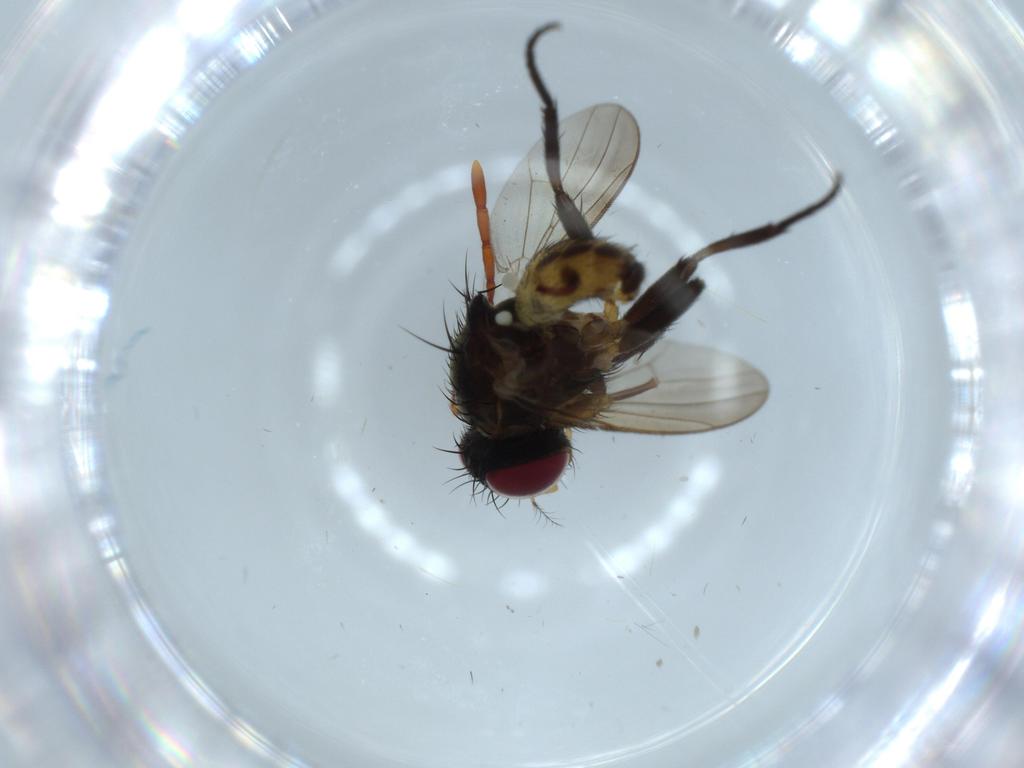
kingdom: Animalia
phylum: Arthropoda
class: Insecta
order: Diptera
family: Anthomyiidae
